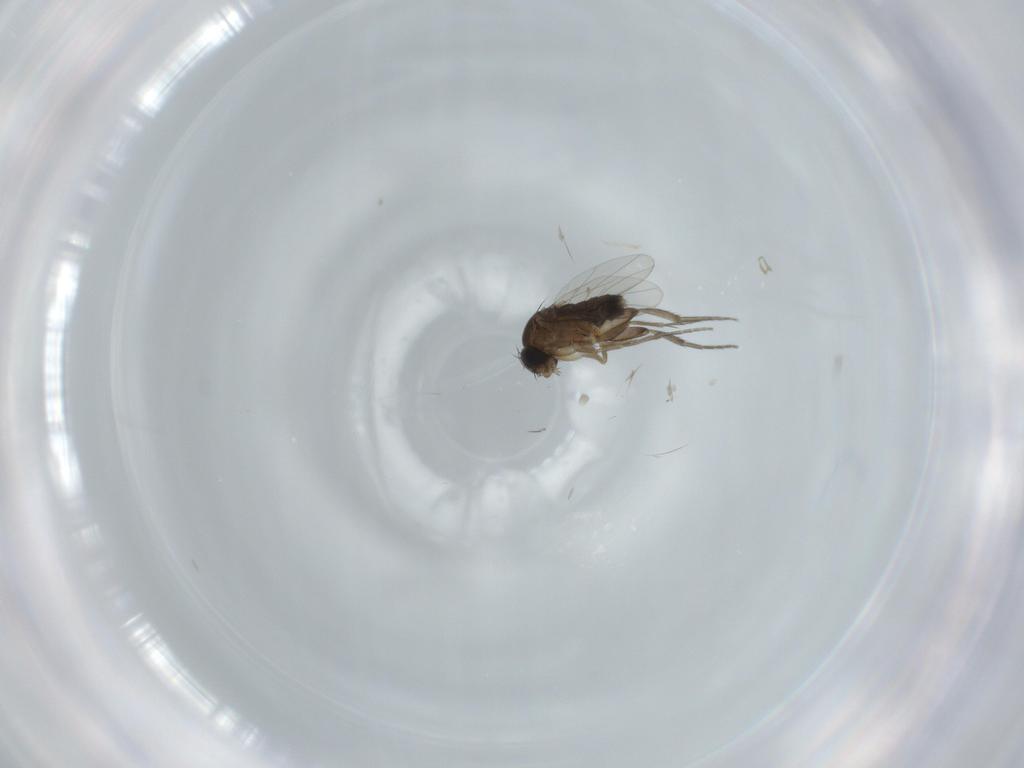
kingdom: Animalia
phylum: Arthropoda
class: Insecta
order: Diptera
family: Phoridae
